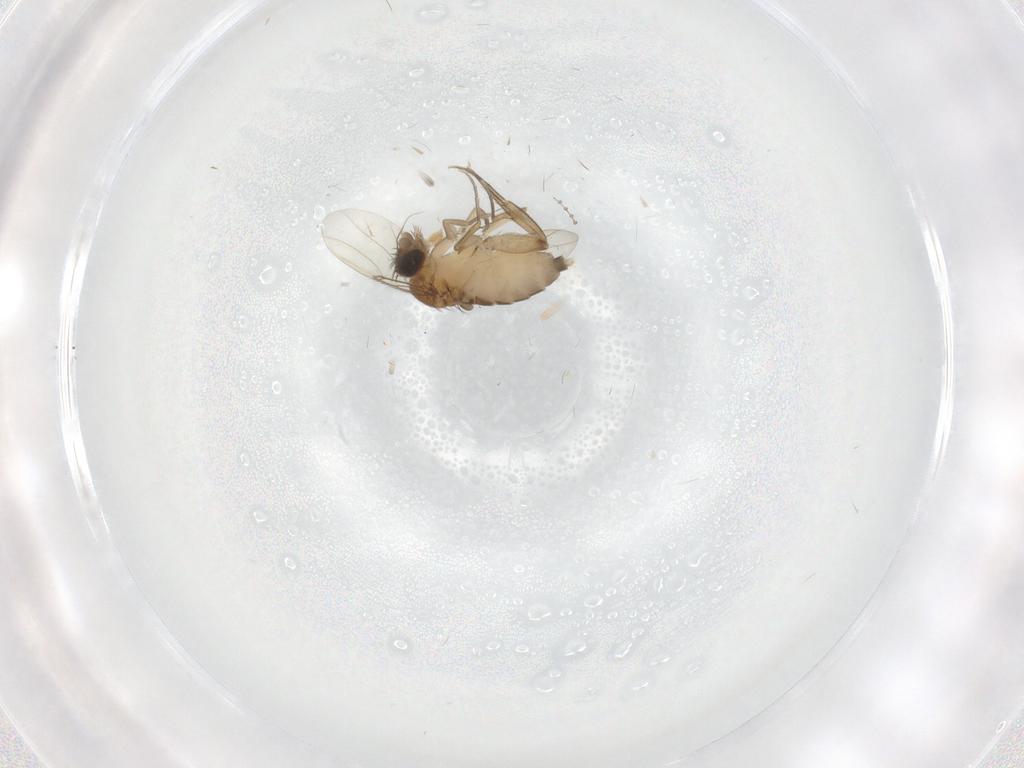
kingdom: Animalia
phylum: Arthropoda
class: Insecta
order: Diptera
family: Phoridae
